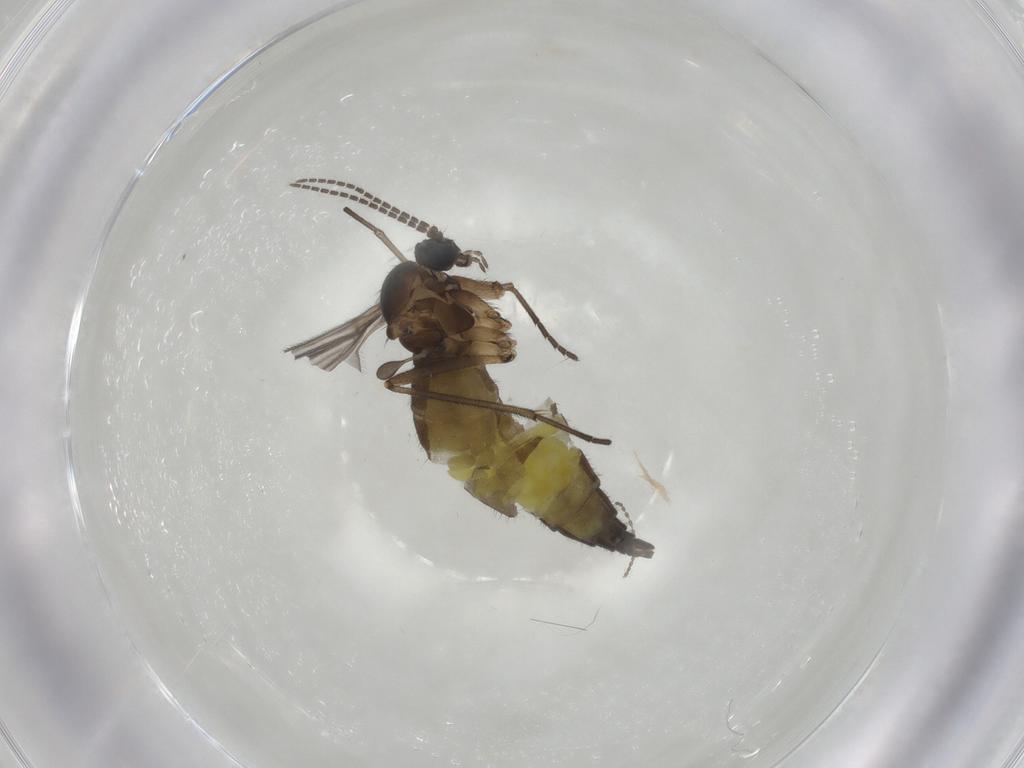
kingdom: Animalia
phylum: Arthropoda
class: Insecta
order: Diptera
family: Sciaridae
